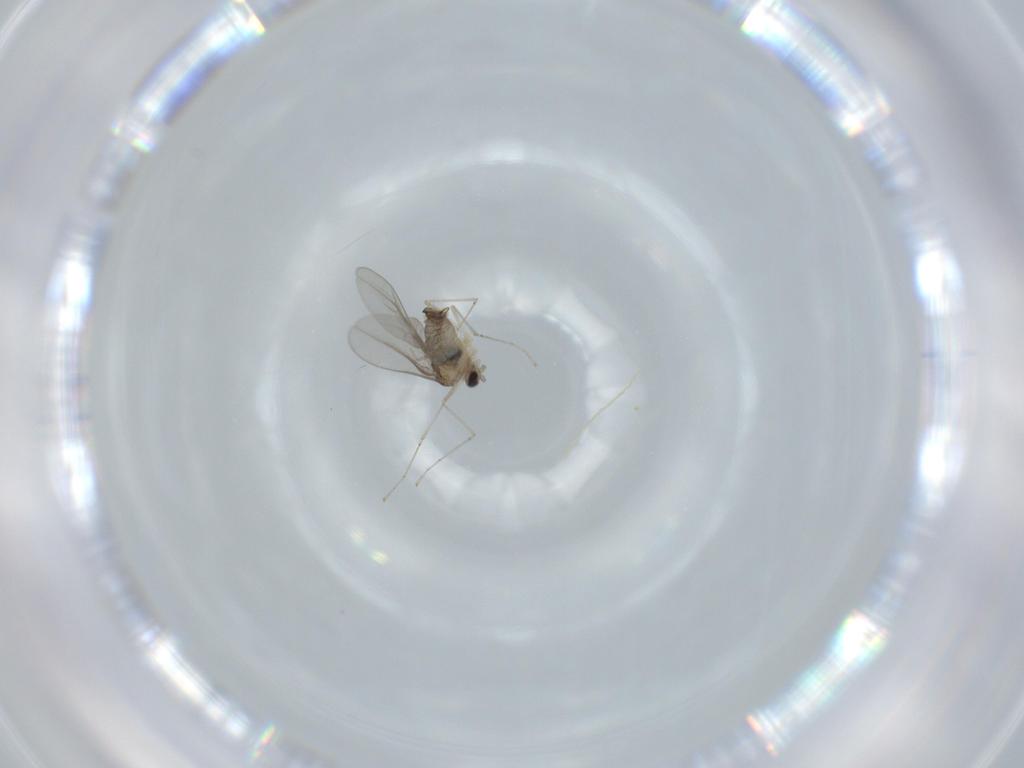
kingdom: Animalia
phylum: Arthropoda
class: Insecta
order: Diptera
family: Cecidomyiidae
